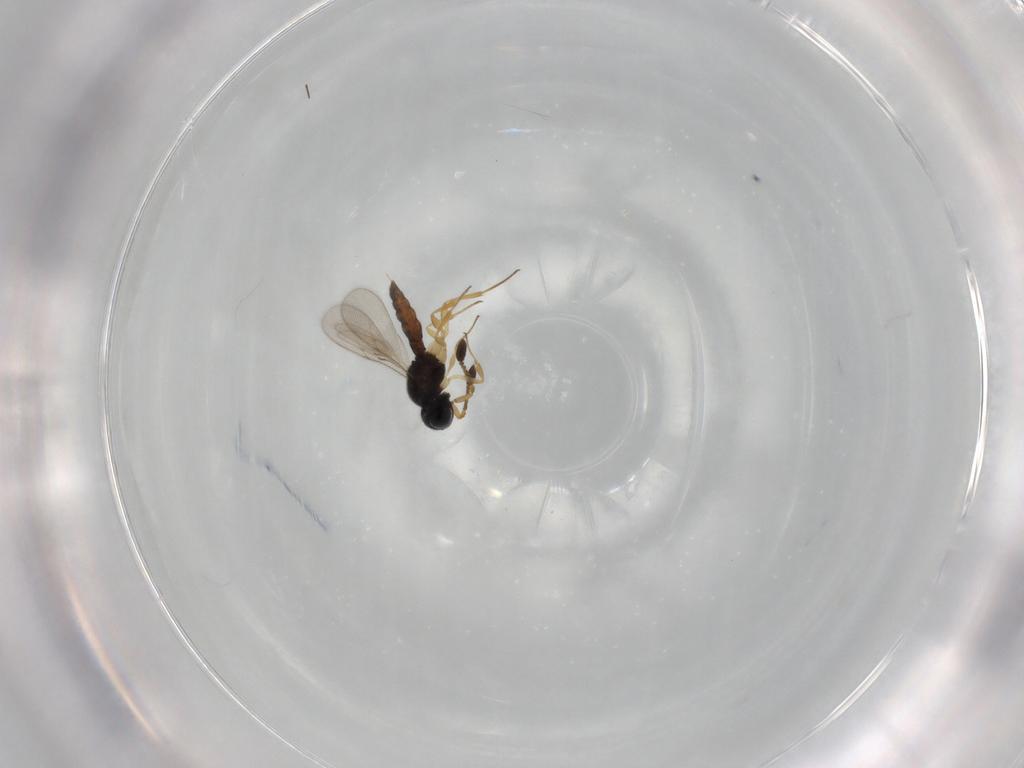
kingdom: Animalia
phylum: Arthropoda
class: Insecta
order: Hymenoptera
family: Scelionidae
